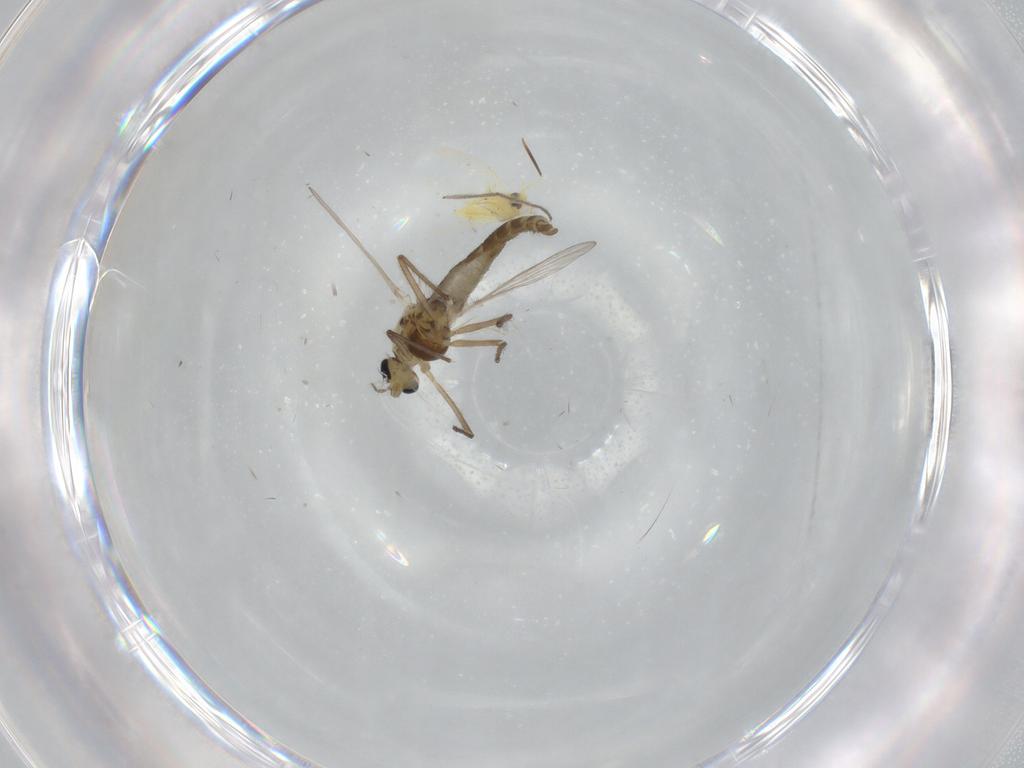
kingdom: Animalia
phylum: Arthropoda
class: Insecta
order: Diptera
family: Chironomidae
